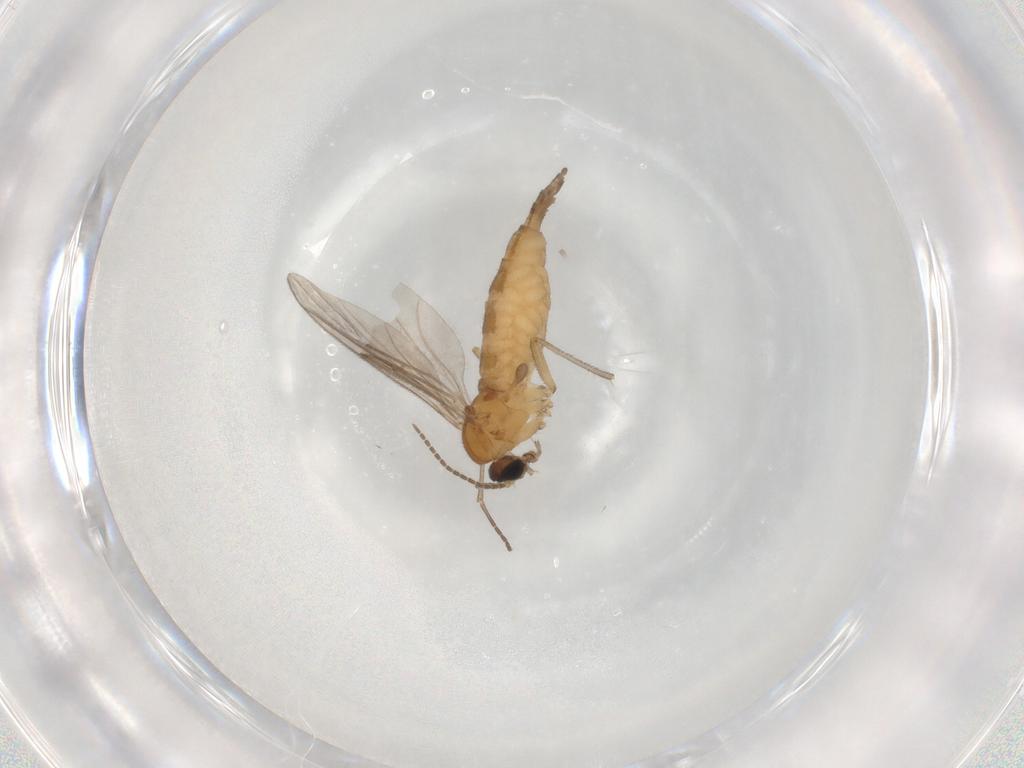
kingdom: Animalia
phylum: Arthropoda
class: Insecta
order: Diptera
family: Sciaridae
